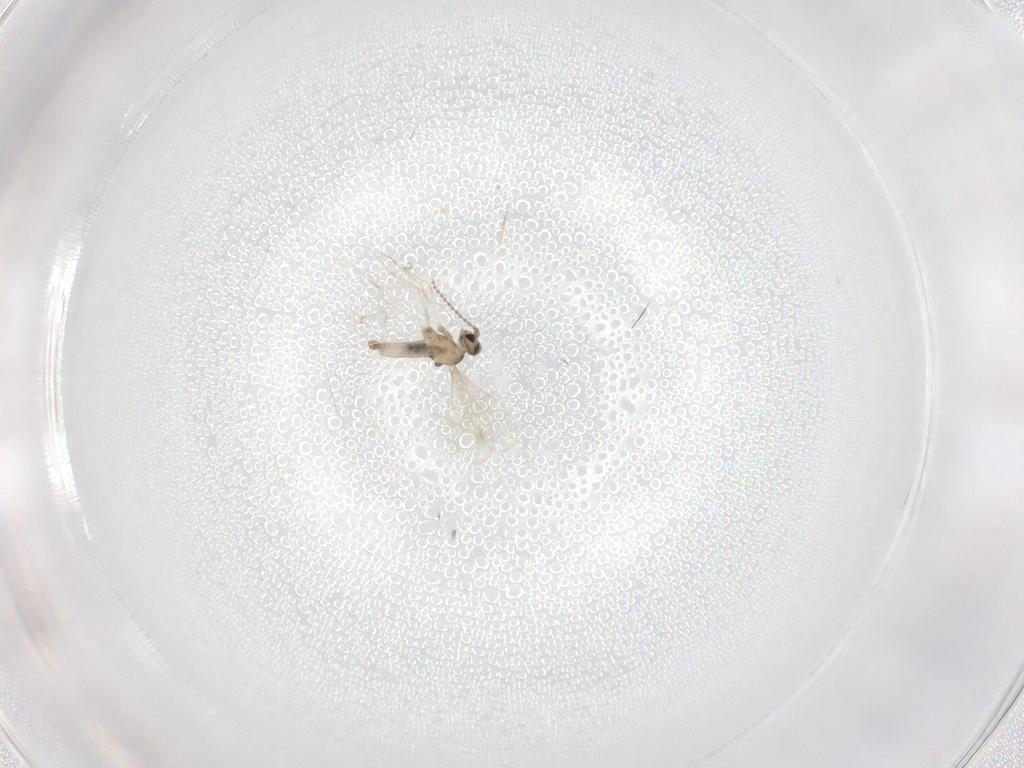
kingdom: Animalia
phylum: Arthropoda
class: Insecta
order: Diptera
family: Cecidomyiidae
